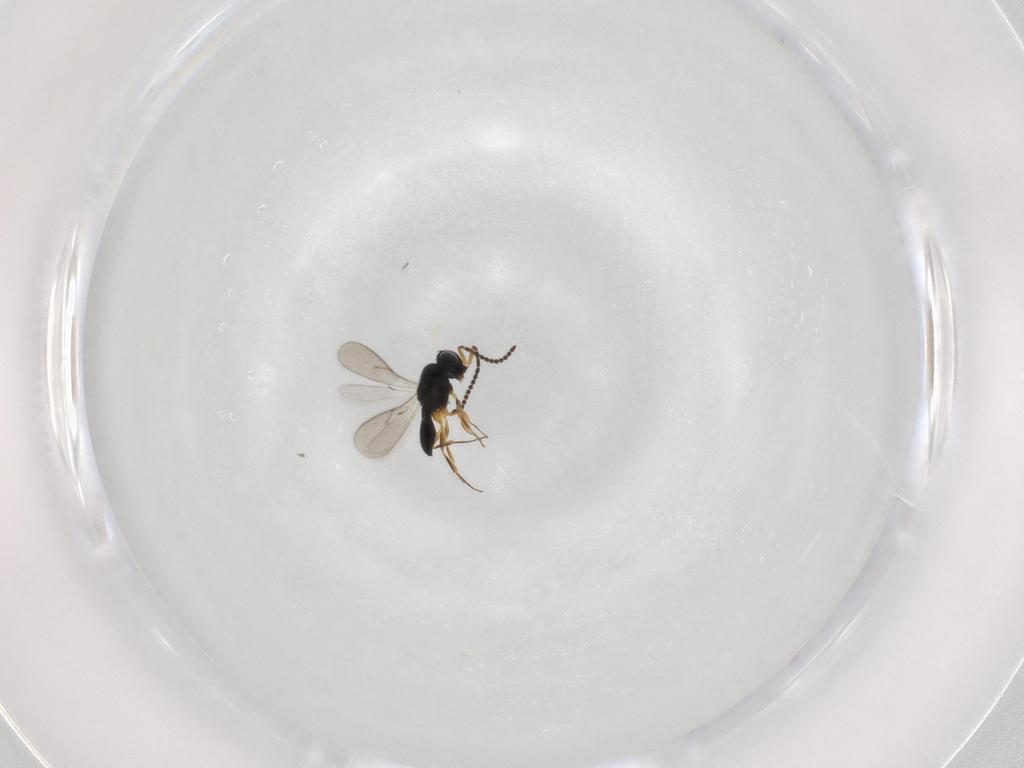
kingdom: Animalia
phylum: Arthropoda
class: Insecta
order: Hymenoptera
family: Scelionidae
